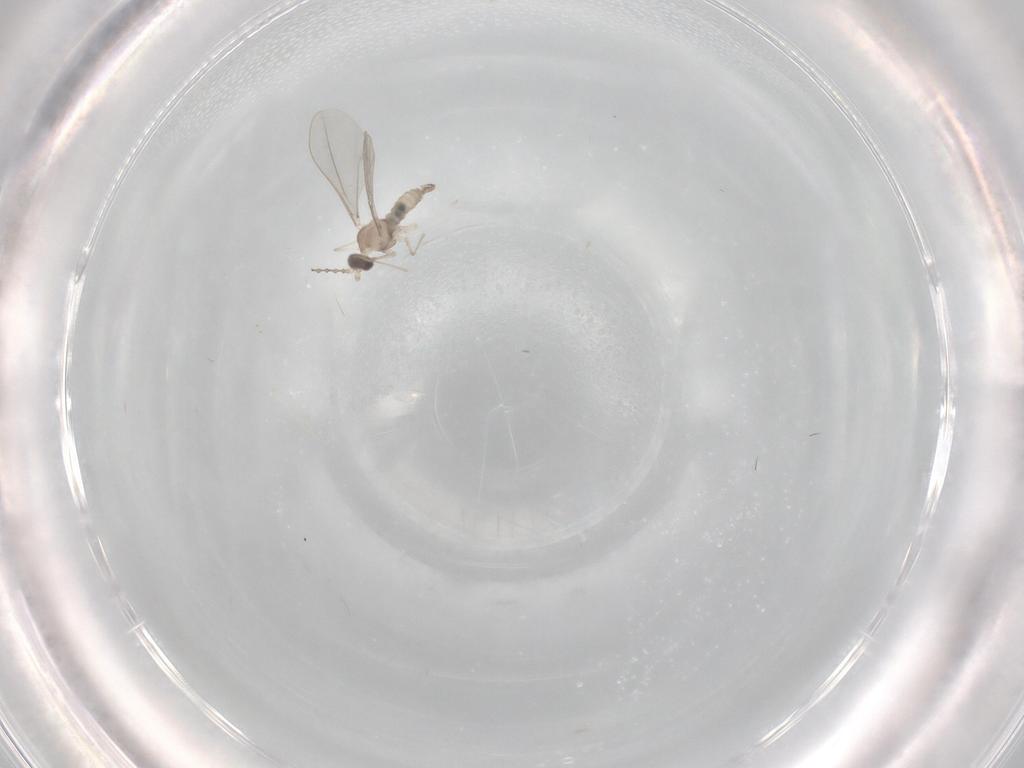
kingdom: Animalia
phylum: Arthropoda
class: Insecta
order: Diptera
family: Cecidomyiidae
